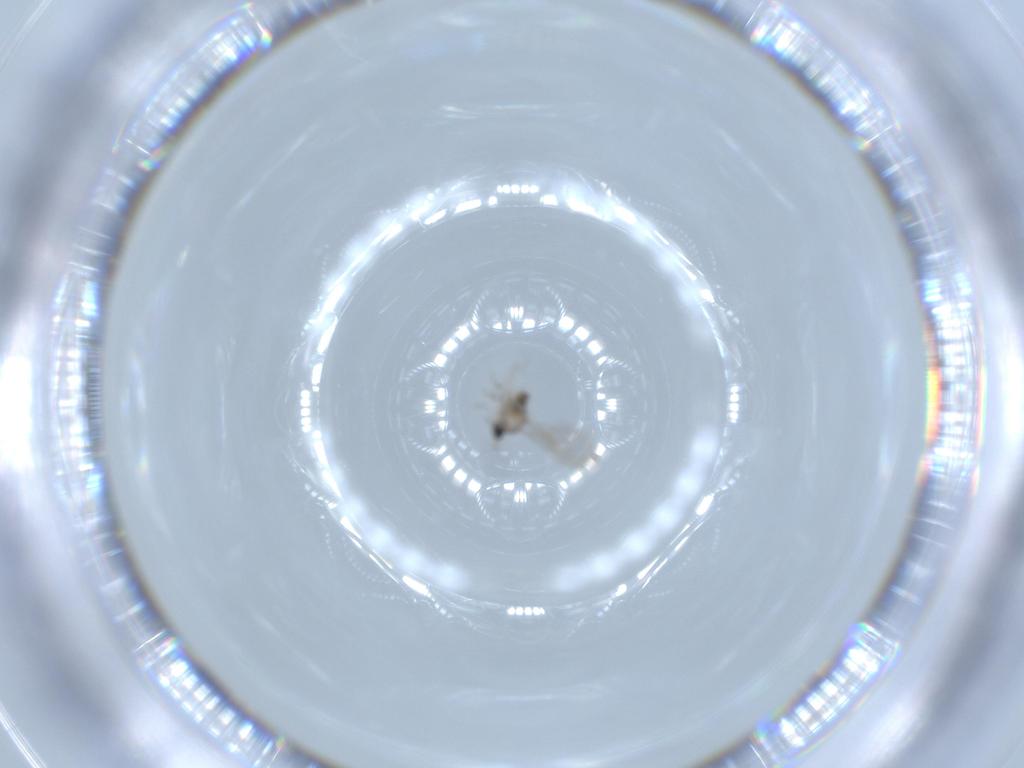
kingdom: Animalia
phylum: Arthropoda
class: Insecta
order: Diptera
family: Cecidomyiidae
